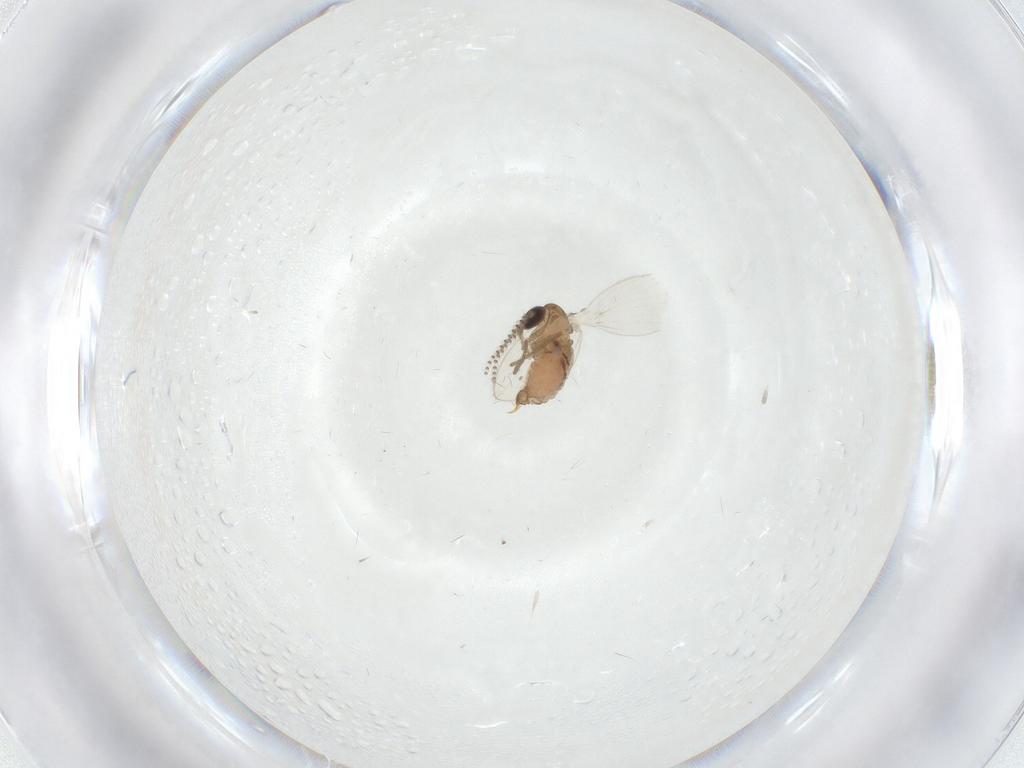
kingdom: Animalia
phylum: Arthropoda
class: Insecta
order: Diptera
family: Psychodidae
